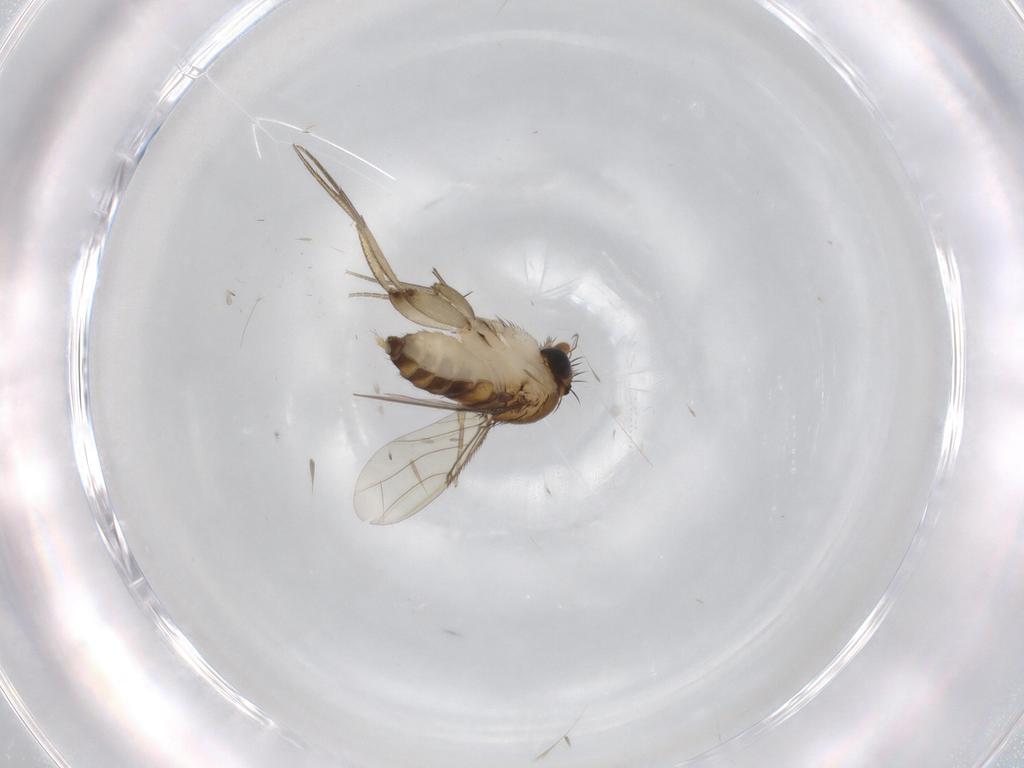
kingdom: Animalia
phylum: Arthropoda
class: Insecta
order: Diptera
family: Phoridae
